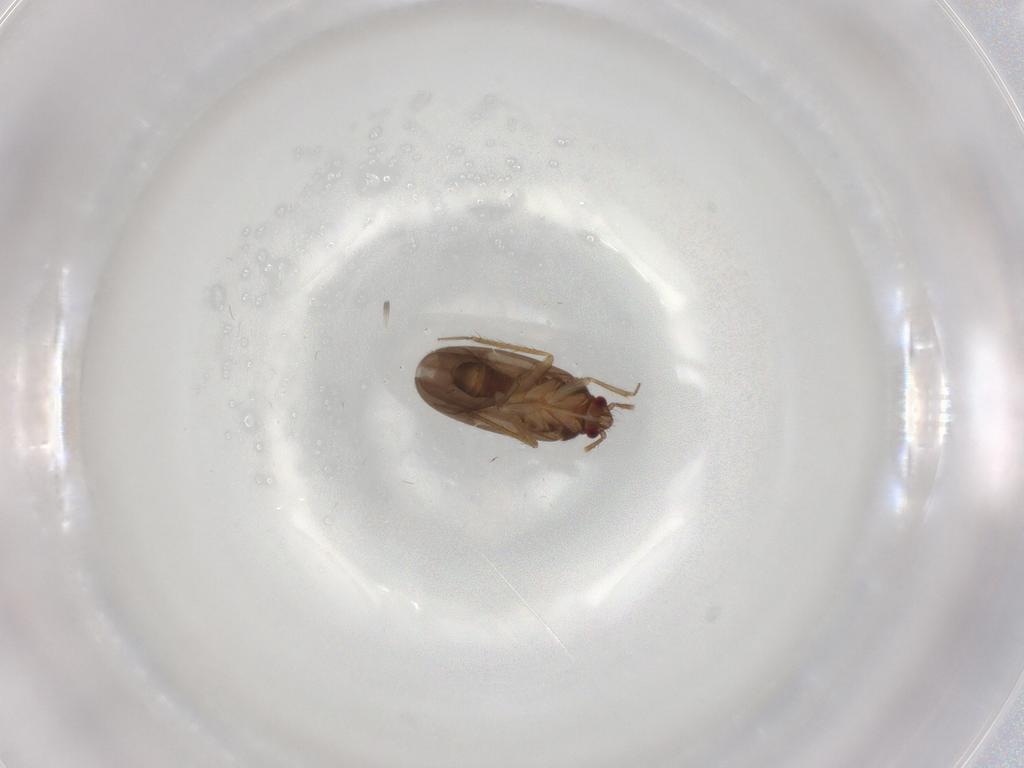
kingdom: Animalia
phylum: Arthropoda
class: Insecta
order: Hemiptera
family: Ceratocombidae
